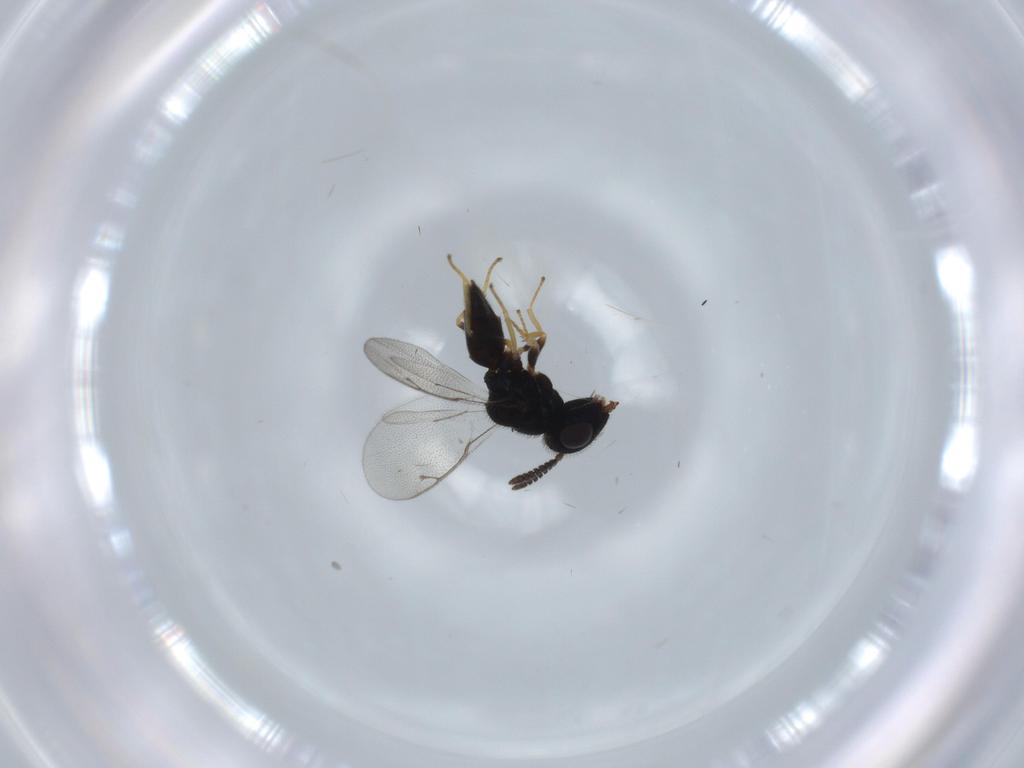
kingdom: Animalia
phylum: Arthropoda
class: Insecta
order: Hymenoptera
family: Pteromalidae
